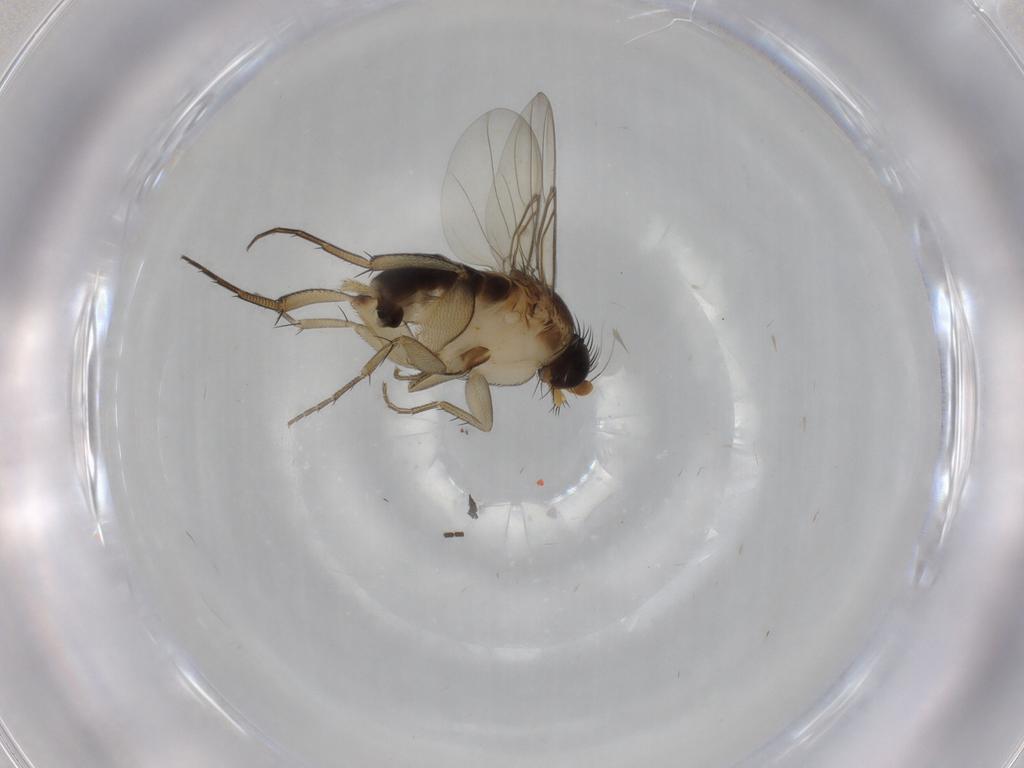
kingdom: Animalia
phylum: Arthropoda
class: Insecta
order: Diptera
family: Phoridae
